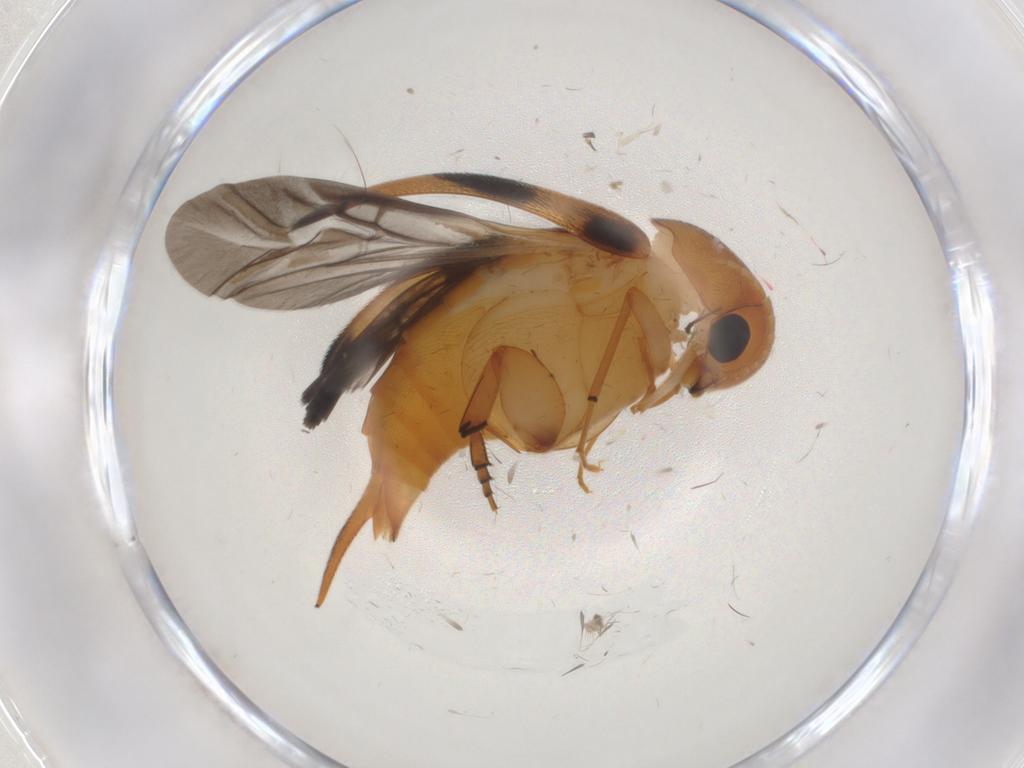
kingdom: Animalia
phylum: Arthropoda
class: Insecta
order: Coleoptera
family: Mordellidae
